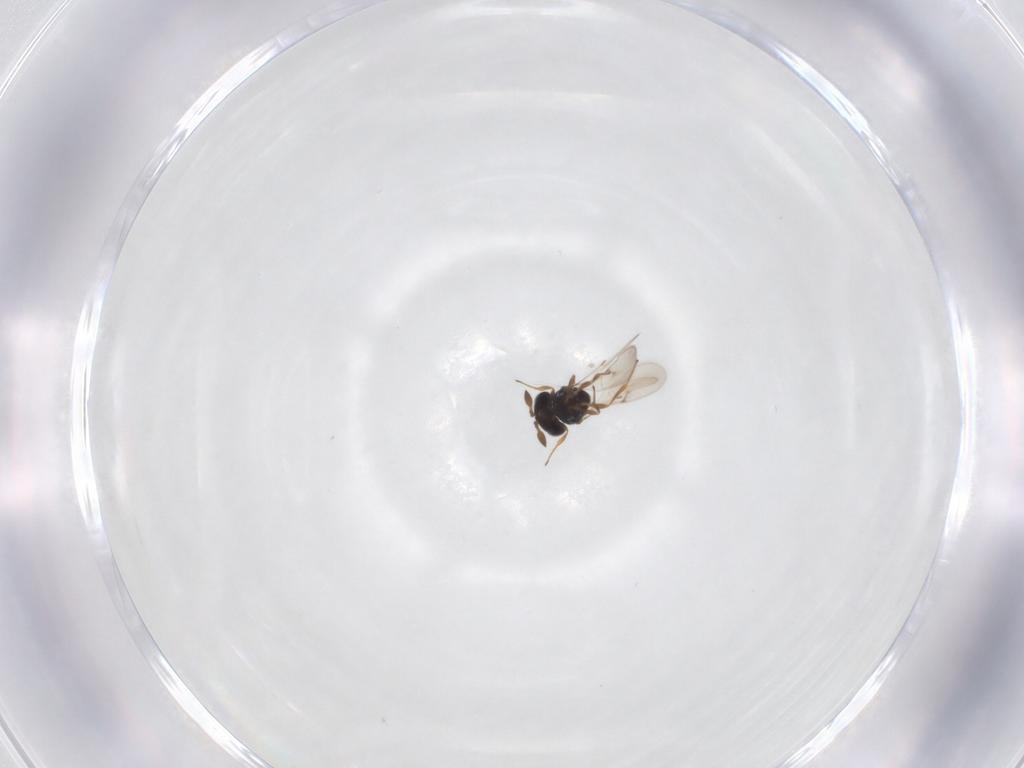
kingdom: Animalia
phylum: Arthropoda
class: Insecta
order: Hymenoptera
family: Scelionidae
